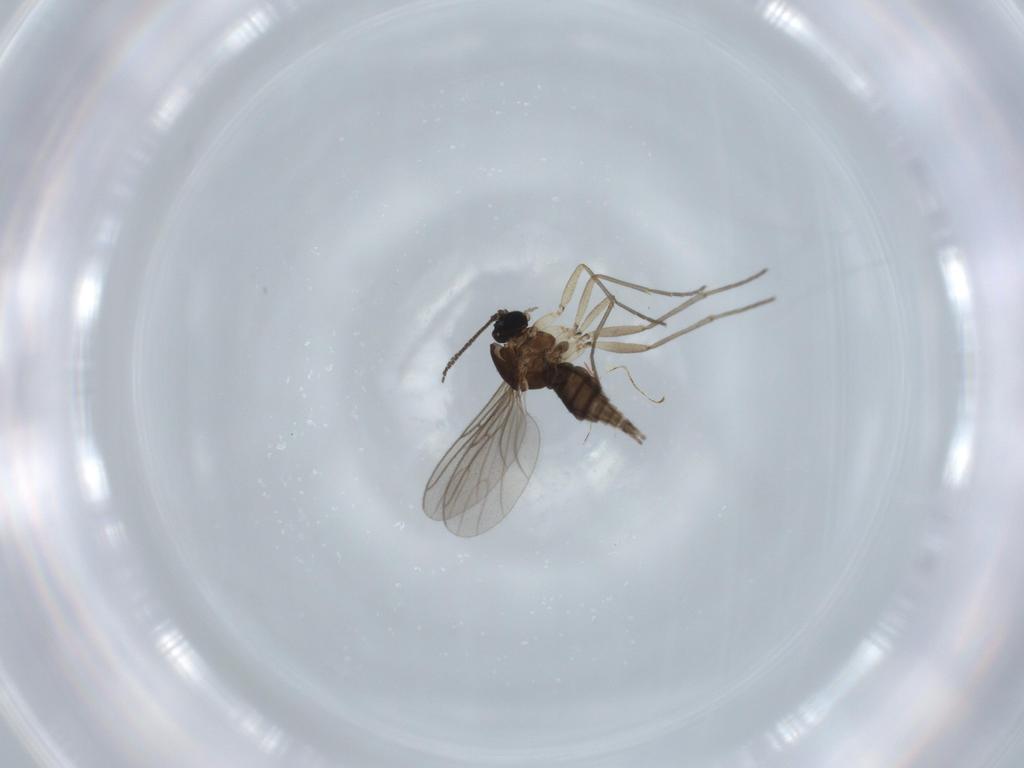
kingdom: Animalia
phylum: Arthropoda
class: Insecta
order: Diptera
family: Sciaridae
